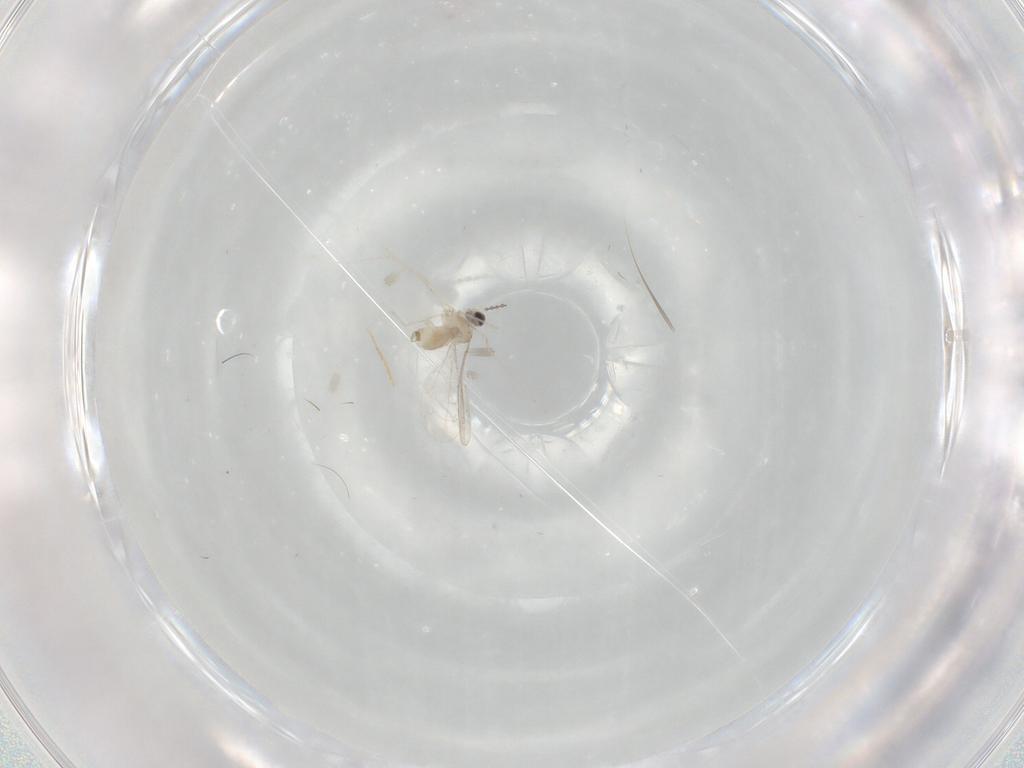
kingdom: Animalia
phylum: Arthropoda
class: Insecta
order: Diptera
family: Cecidomyiidae
